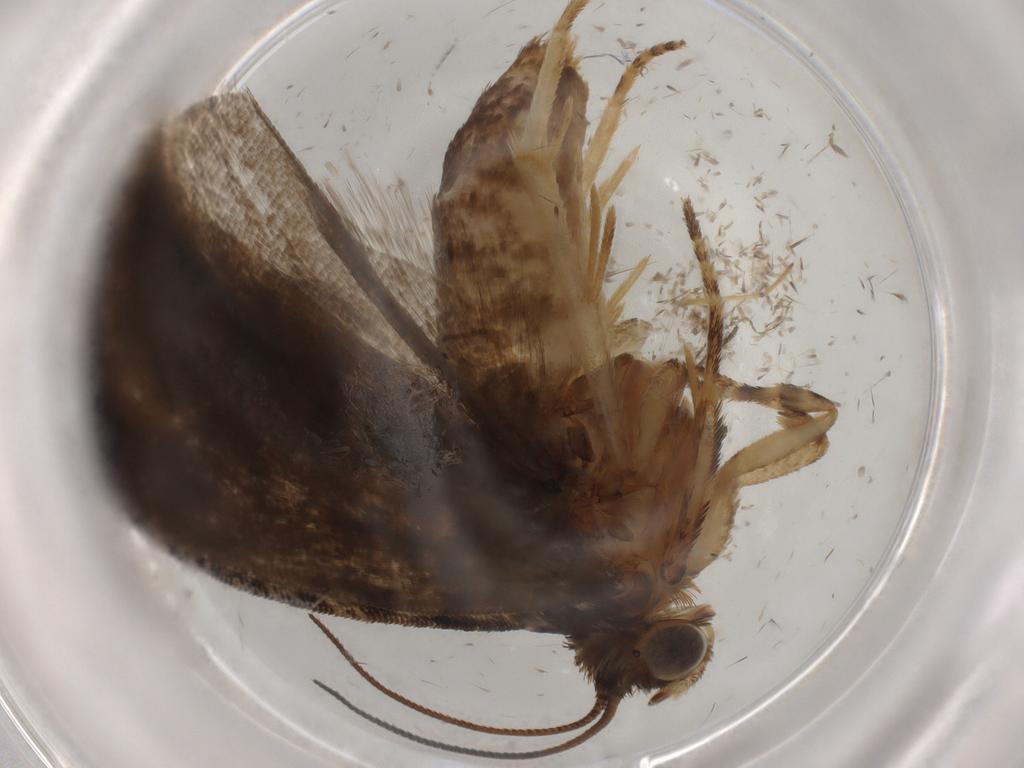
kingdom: Animalia
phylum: Arthropoda
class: Insecta
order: Lepidoptera
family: Tortricidae
